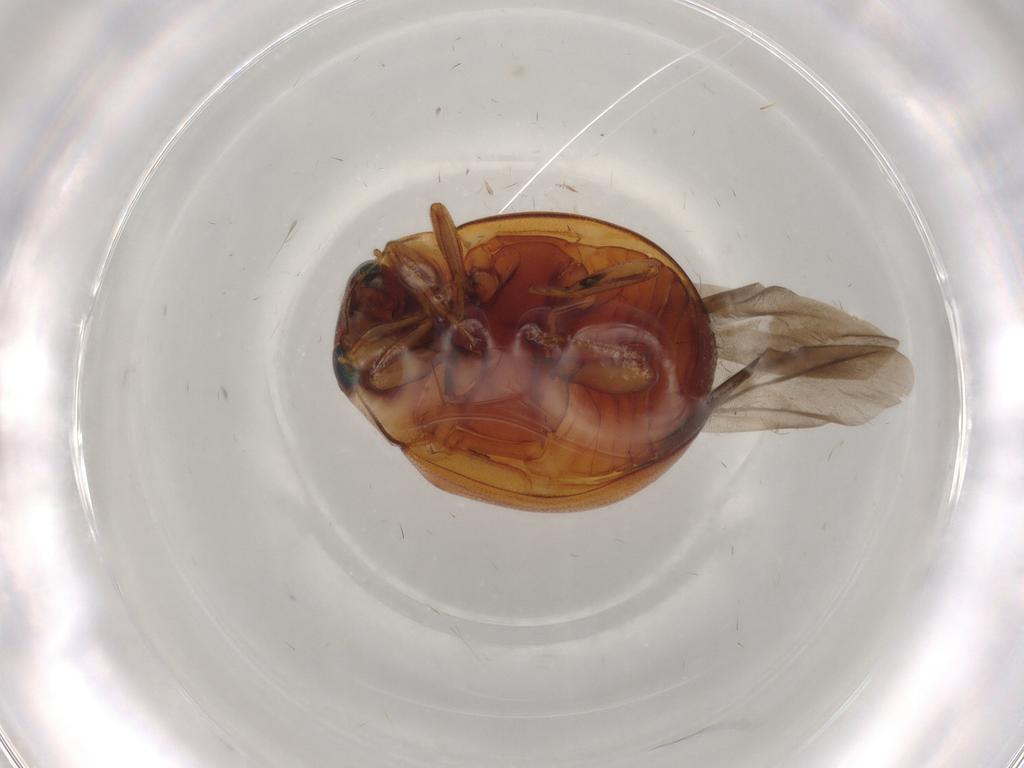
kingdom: Animalia
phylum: Arthropoda
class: Insecta
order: Coleoptera
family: Coccinellidae
